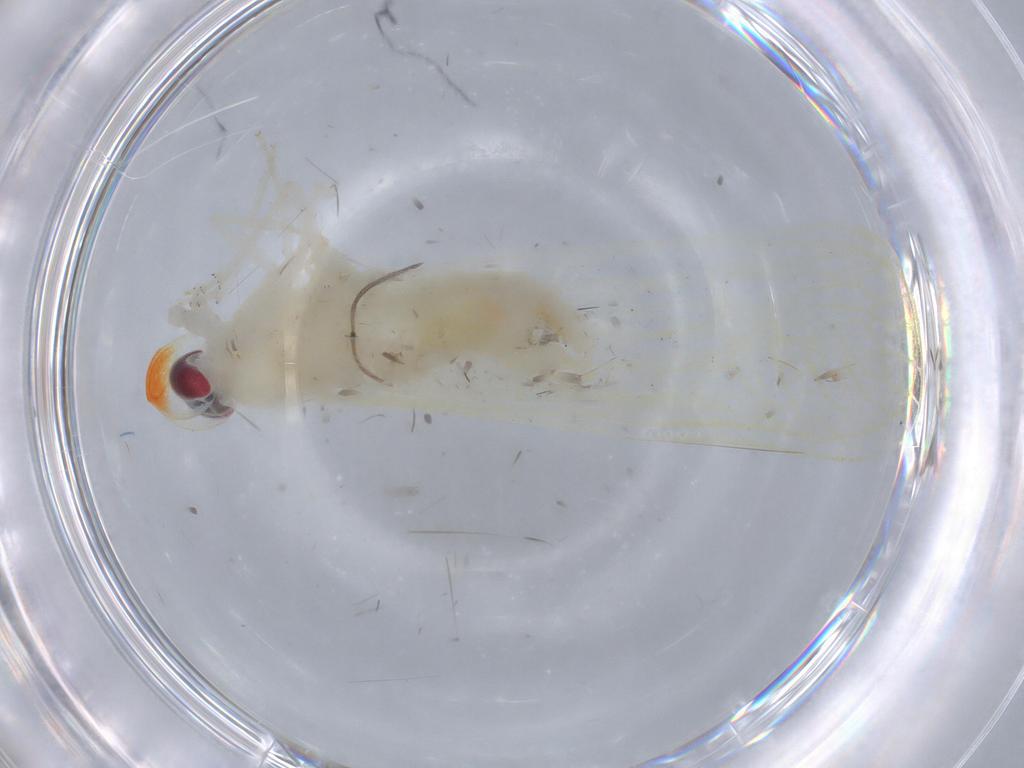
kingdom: Animalia
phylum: Arthropoda
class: Insecta
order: Hemiptera
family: Derbidae
